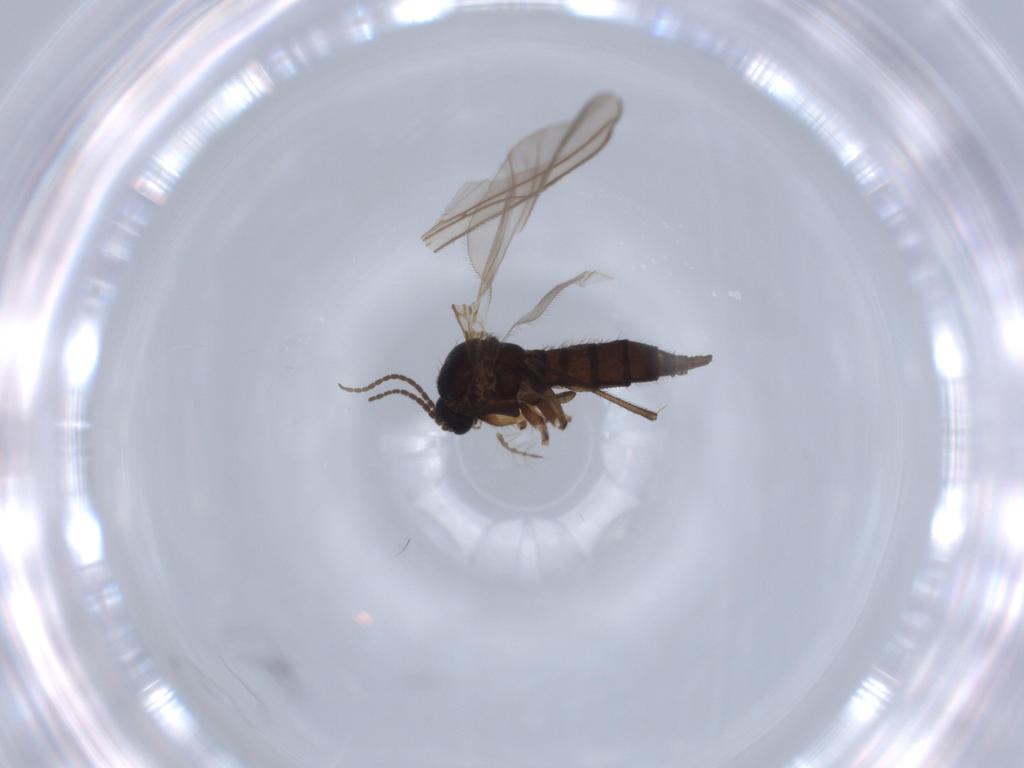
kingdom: Animalia
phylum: Arthropoda
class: Insecta
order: Diptera
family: Sciaridae
